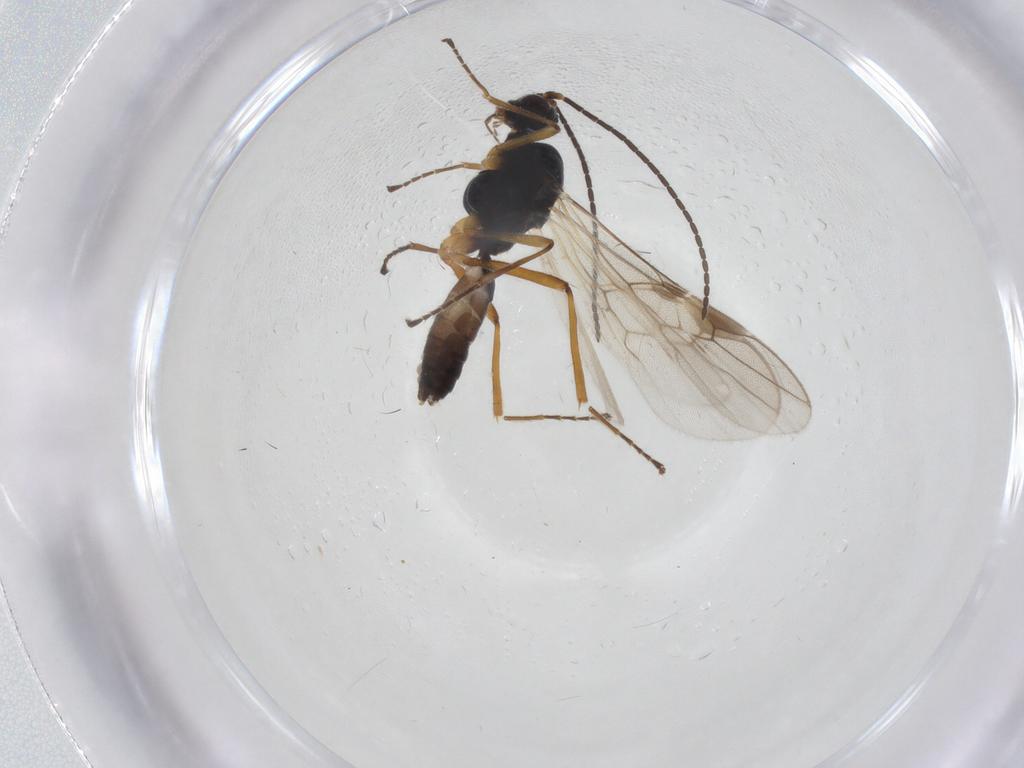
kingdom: Animalia
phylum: Arthropoda
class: Insecta
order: Hymenoptera
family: Braconidae
